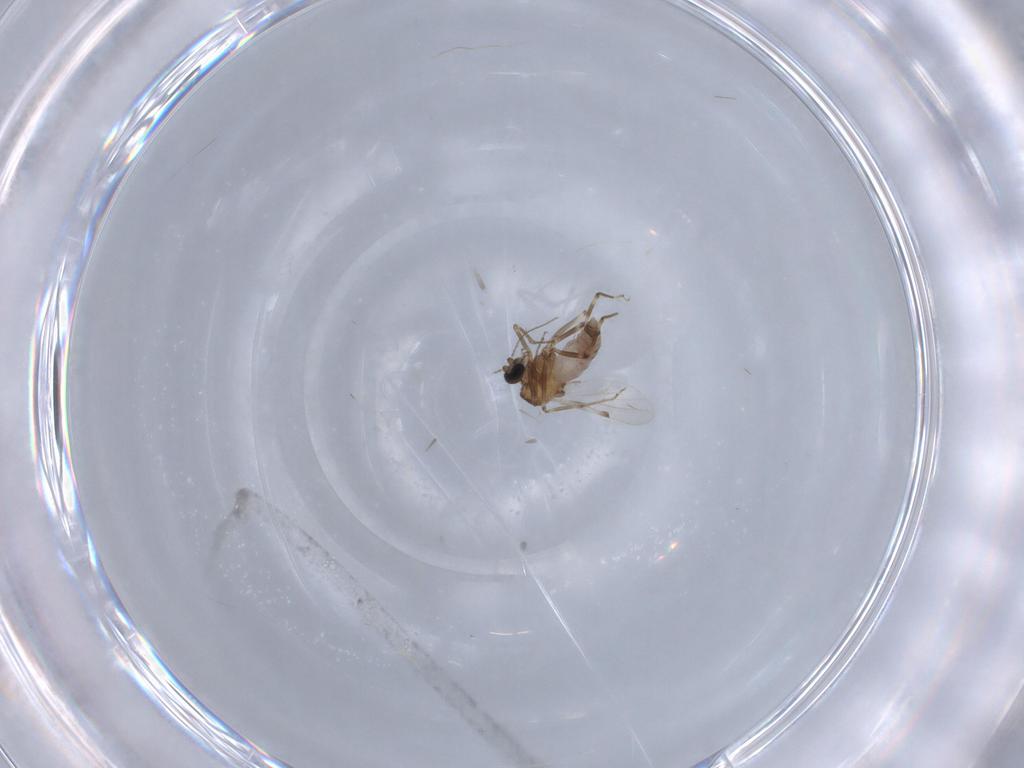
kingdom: Animalia
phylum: Arthropoda
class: Insecta
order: Diptera
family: Ceratopogonidae
